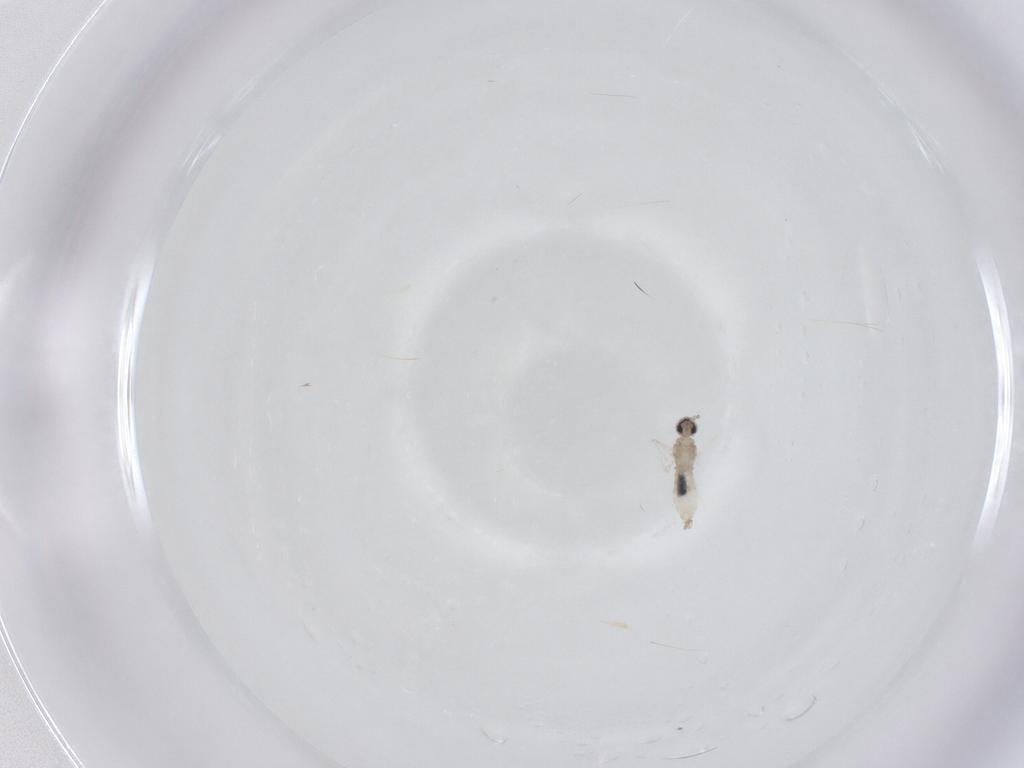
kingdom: Animalia
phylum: Arthropoda
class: Insecta
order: Diptera
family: Cecidomyiidae
